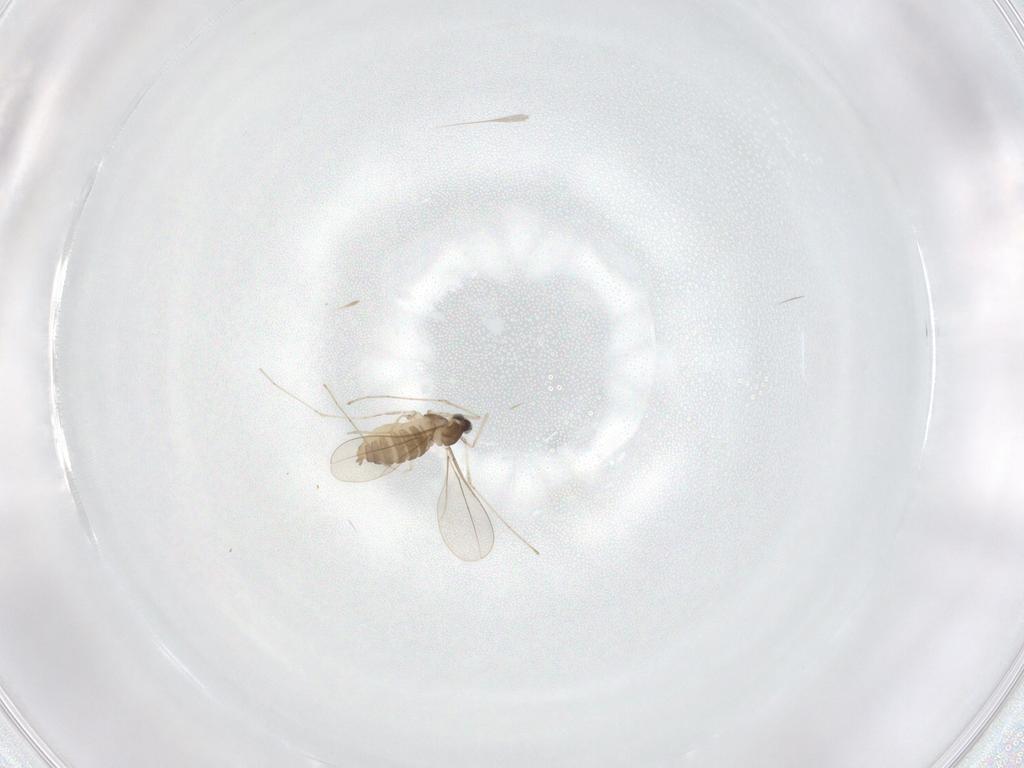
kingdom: Animalia
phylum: Arthropoda
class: Insecta
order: Diptera
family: Cecidomyiidae
